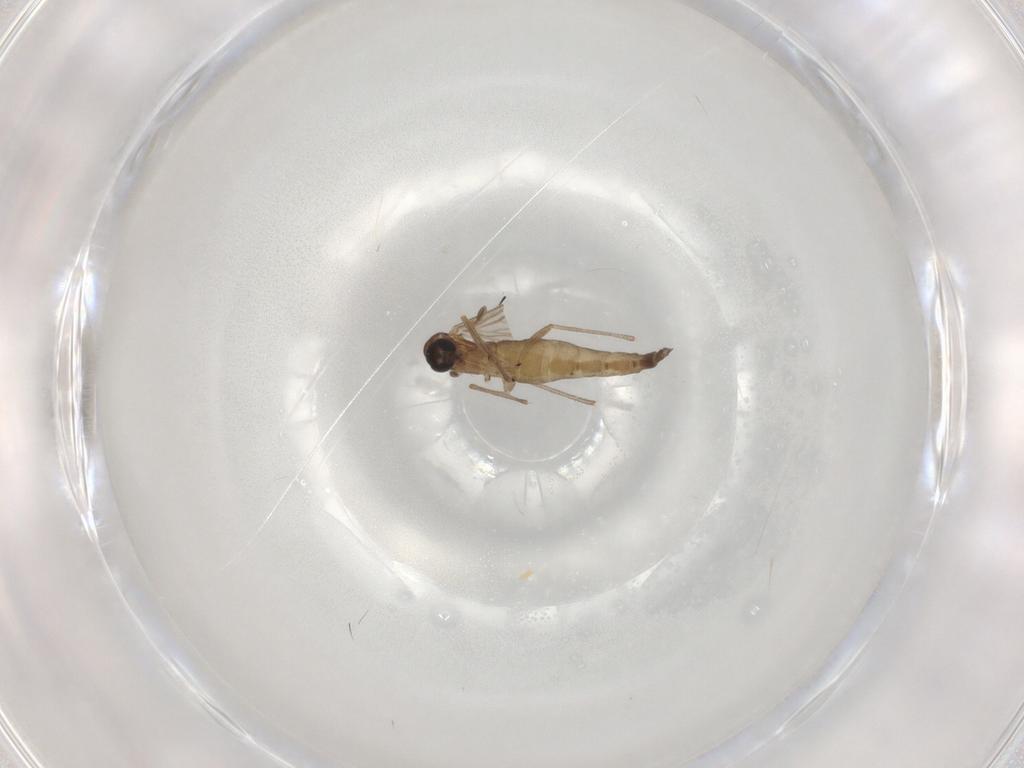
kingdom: Animalia
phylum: Arthropoda
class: Insecta
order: Diptera
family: Sciaridae
